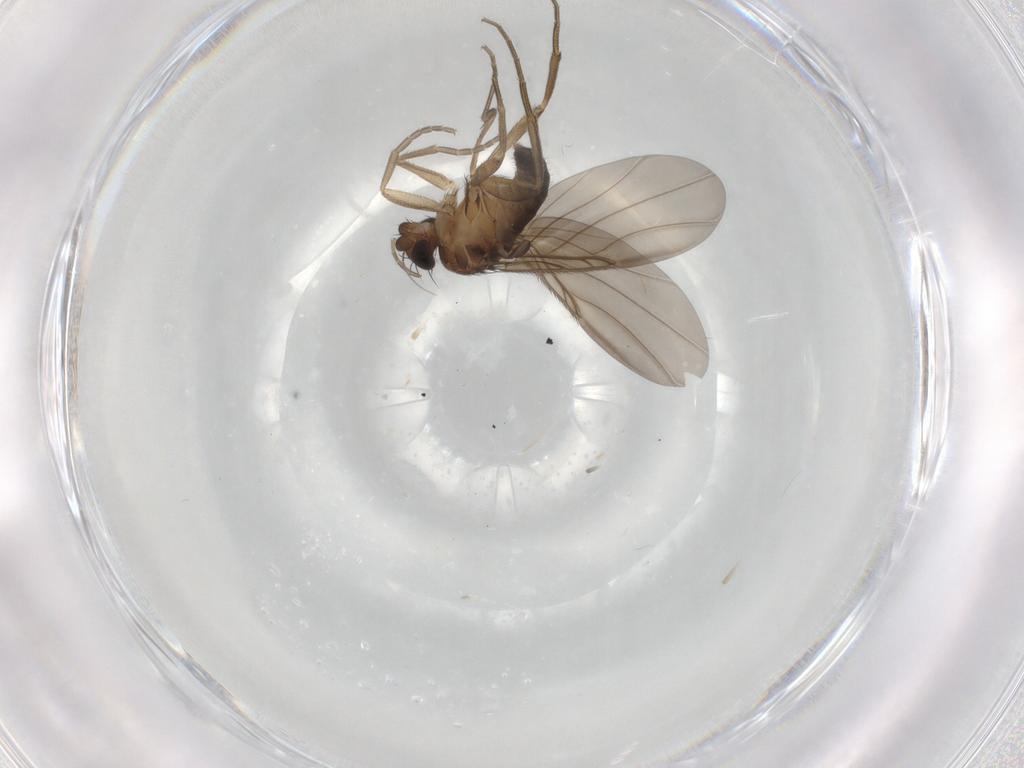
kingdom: Animalia
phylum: Arthropoda
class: Insecta
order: Diptera
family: Phoridae
